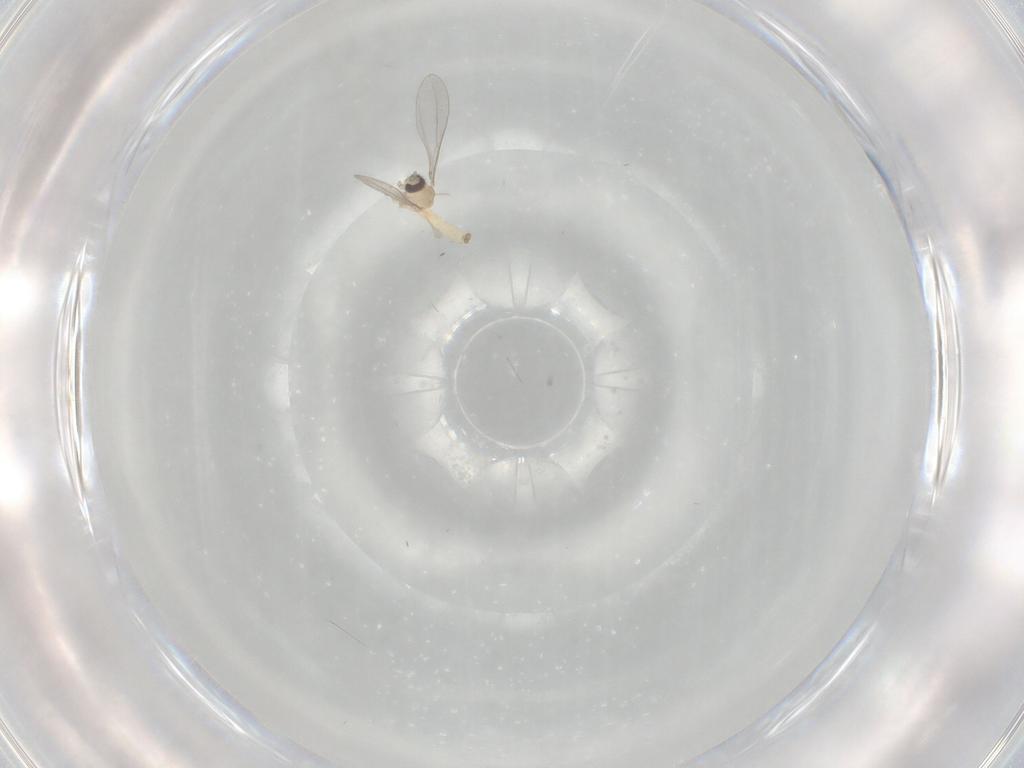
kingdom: Animalia
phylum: Arthropoda
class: Insecta
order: Diptera
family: Cecidomyiidae
